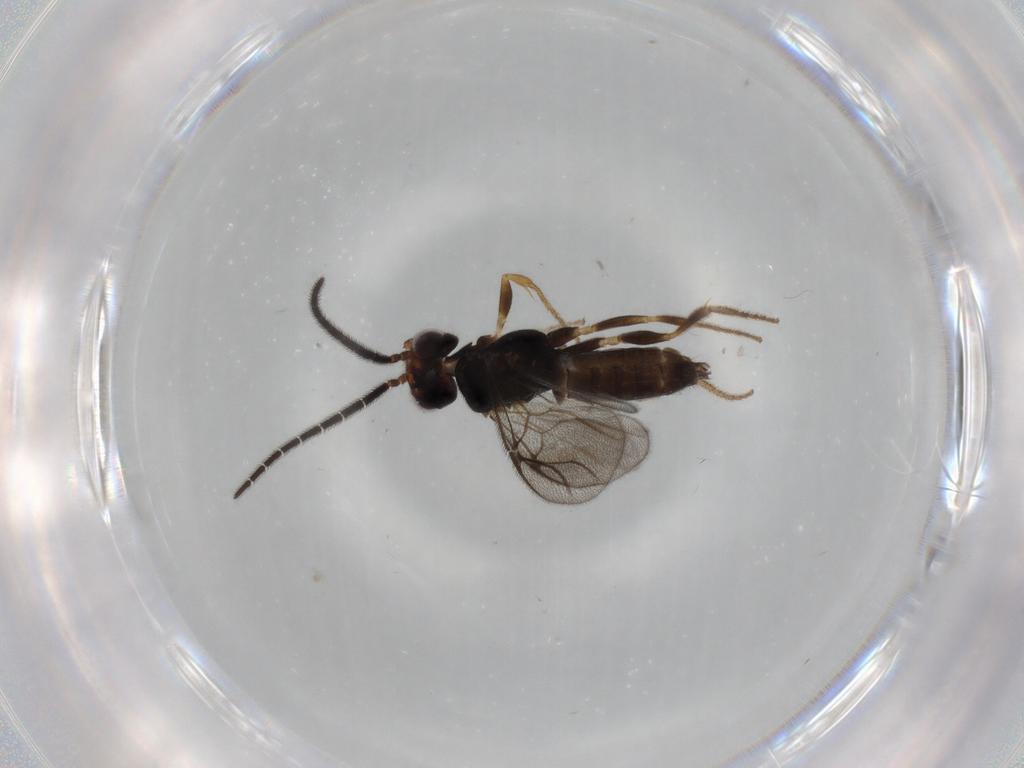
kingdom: Animalia
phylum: Arthropoda
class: Insecta
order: Hymenoptera
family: Dryinidae
